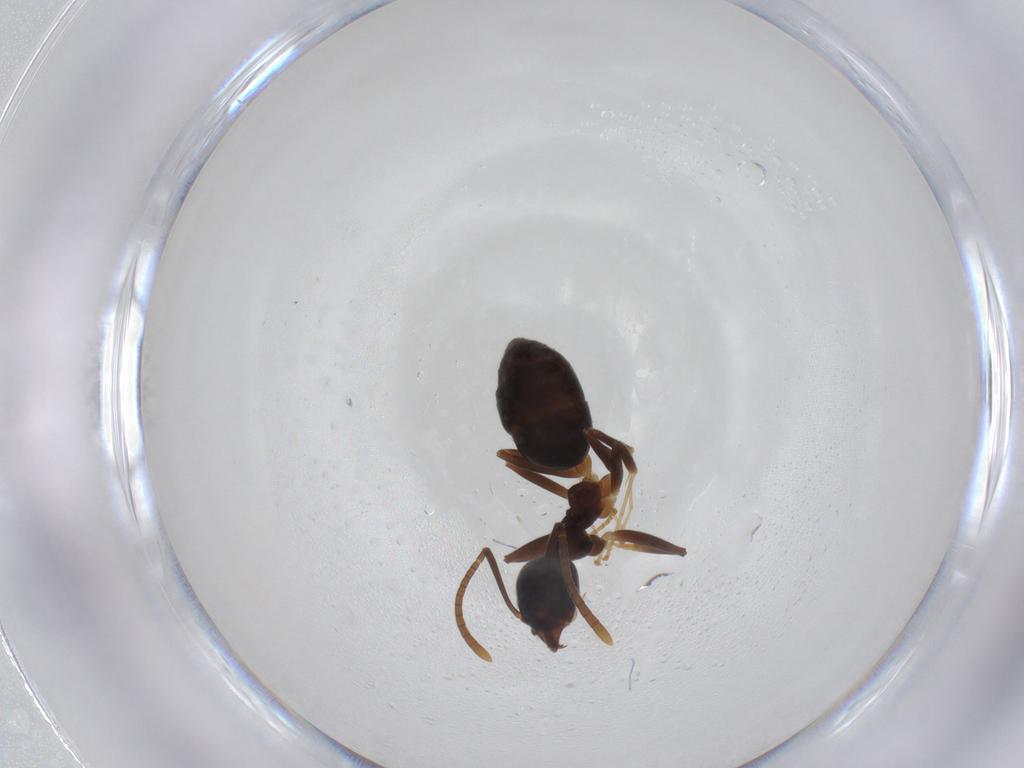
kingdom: Animalia
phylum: Arthropoda
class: Insecta
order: Hymenoptera
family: Formicidae
